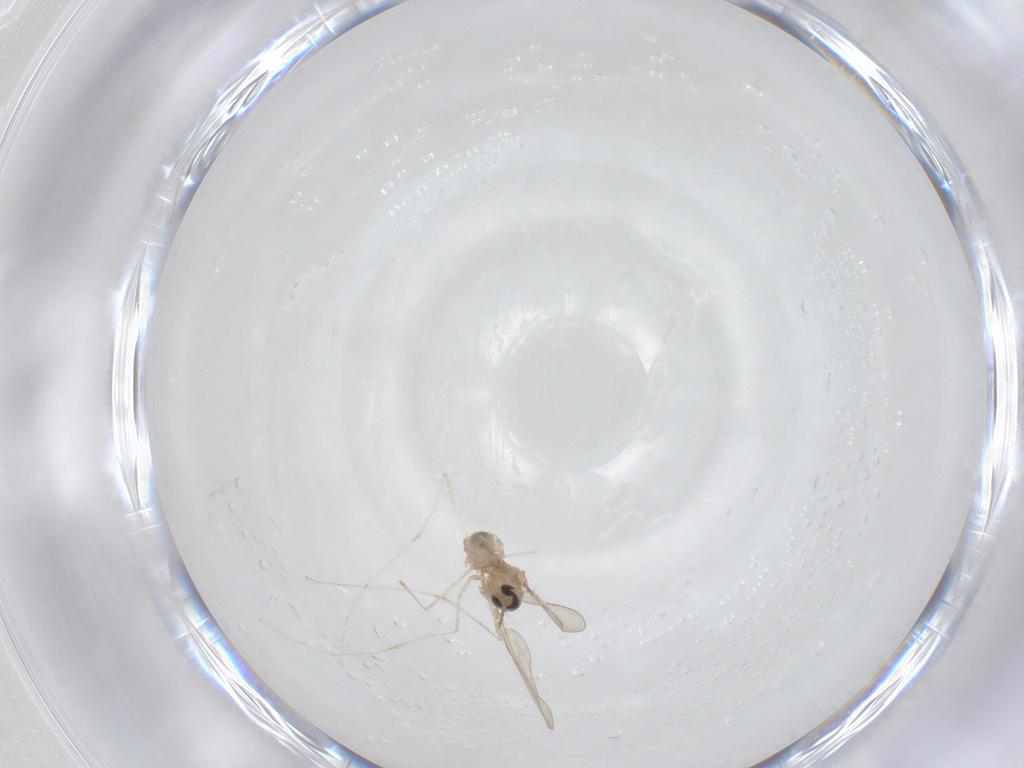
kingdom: Animalia
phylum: Arthropoda
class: Insecta
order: Diptera
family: Cecidomyiidae
